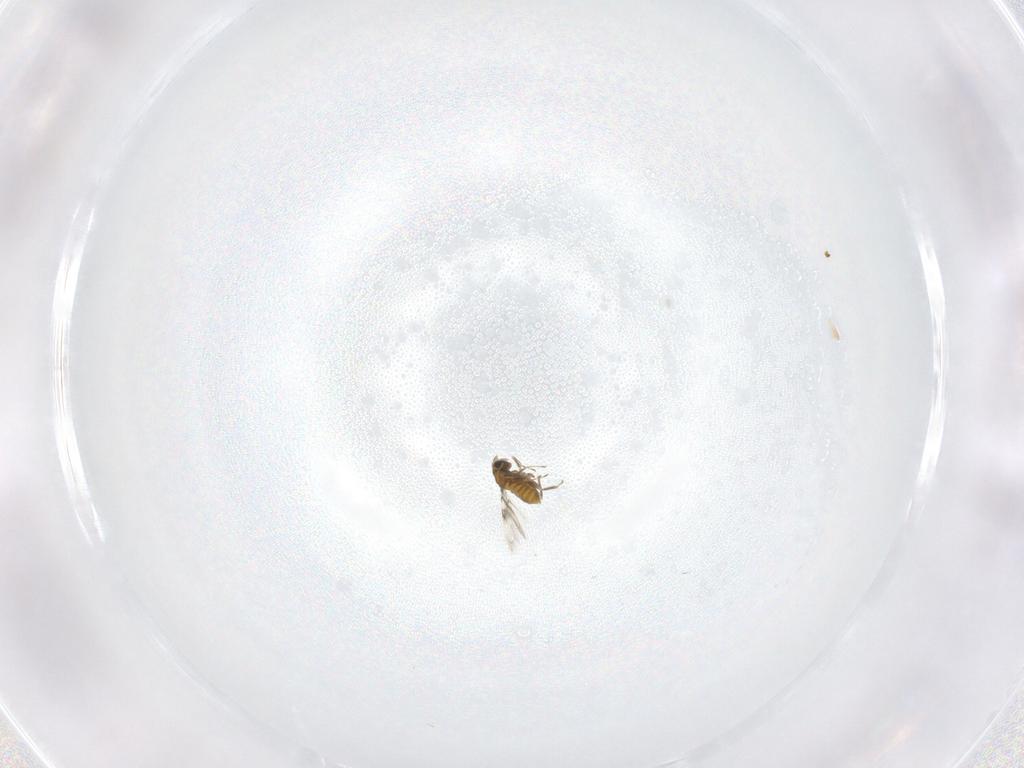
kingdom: Animalia
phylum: Arthropoda
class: Insecta
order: Hymenoptera
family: Trichogrammatidae
